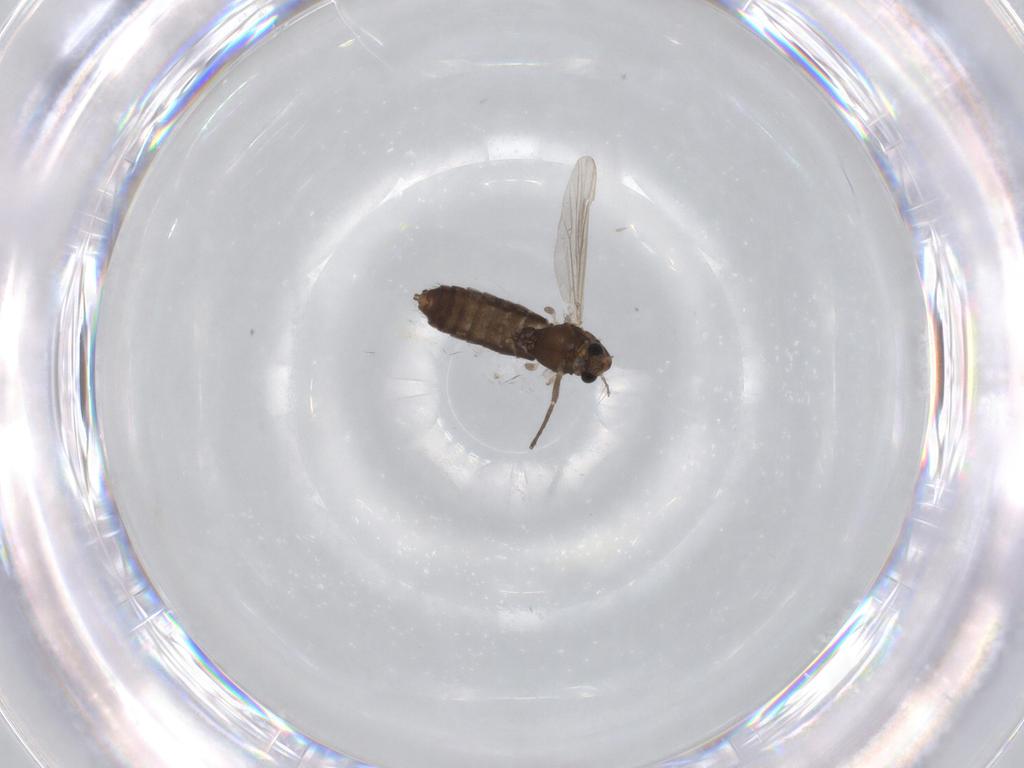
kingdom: Animalia
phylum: Arthropoda
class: Insecta
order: Diptera
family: Chironomidae
